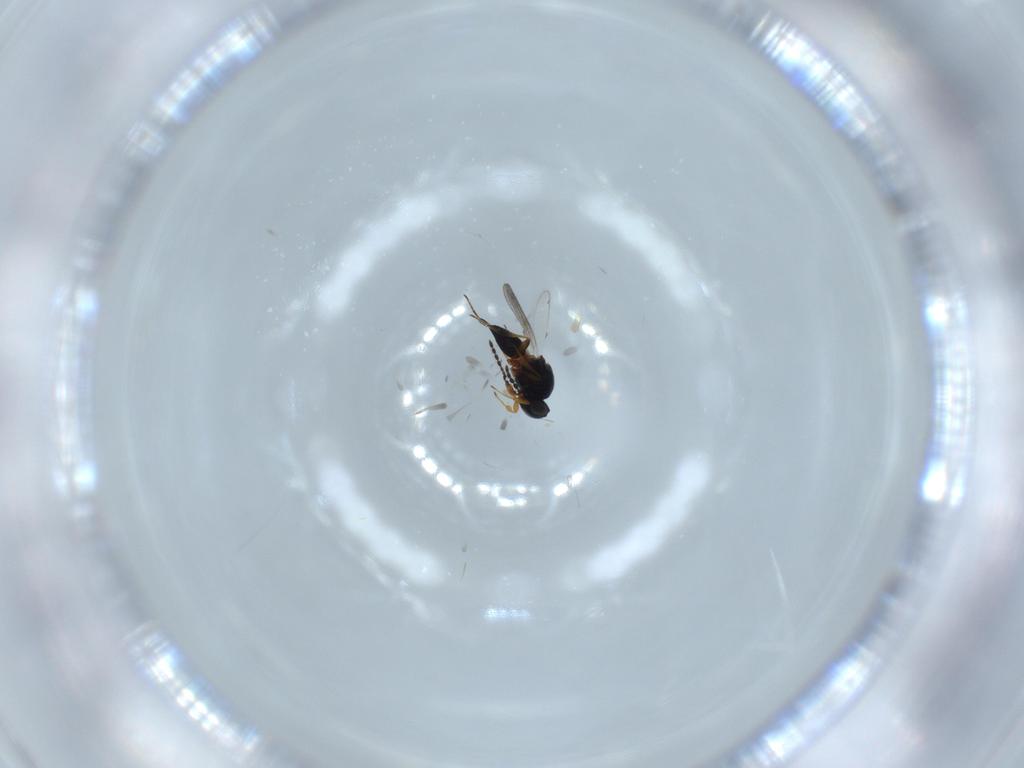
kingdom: Animalia
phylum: Arthropoda
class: Insecta
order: Hymenoptera
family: Platygastridae
